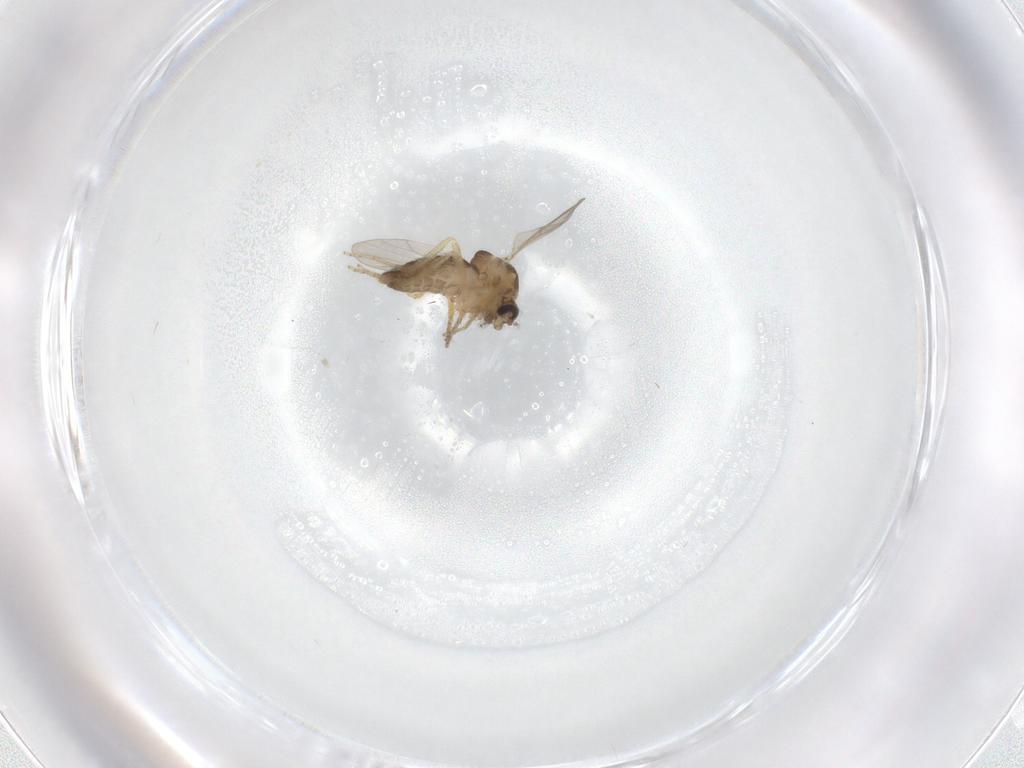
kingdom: Animalia
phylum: Arthropoda
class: Insecta
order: Diptera
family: Ceratopogonidae
